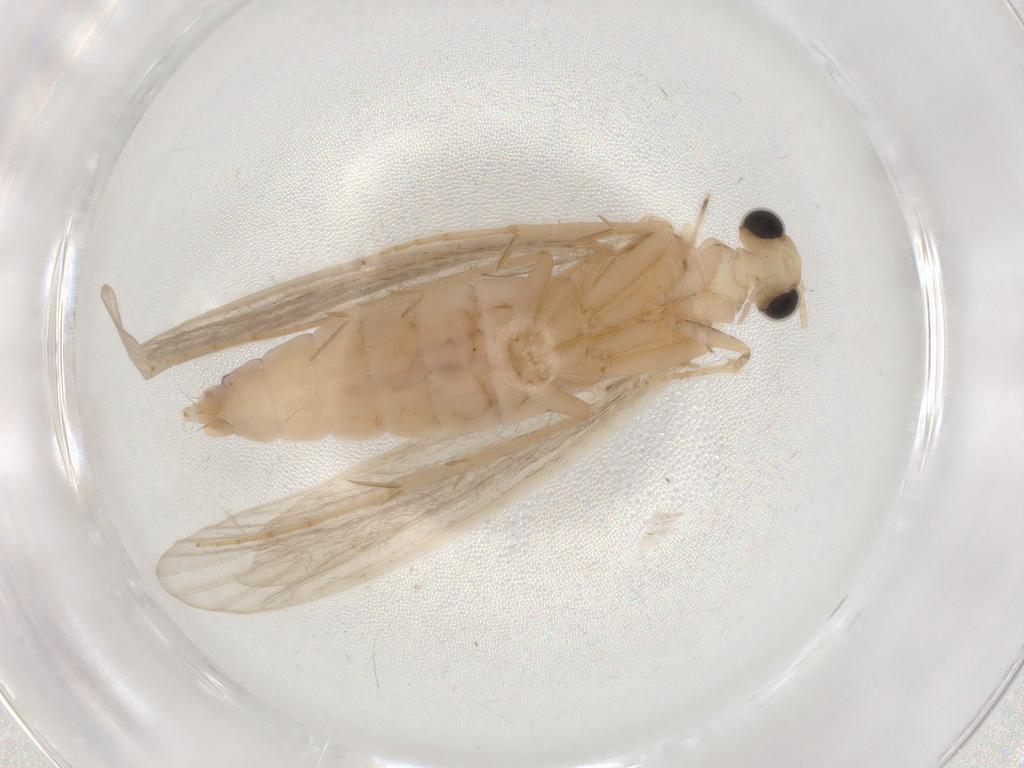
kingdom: Animalia
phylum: Arthropoda
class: Insecta
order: Trichoptera
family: Ecnomidae
